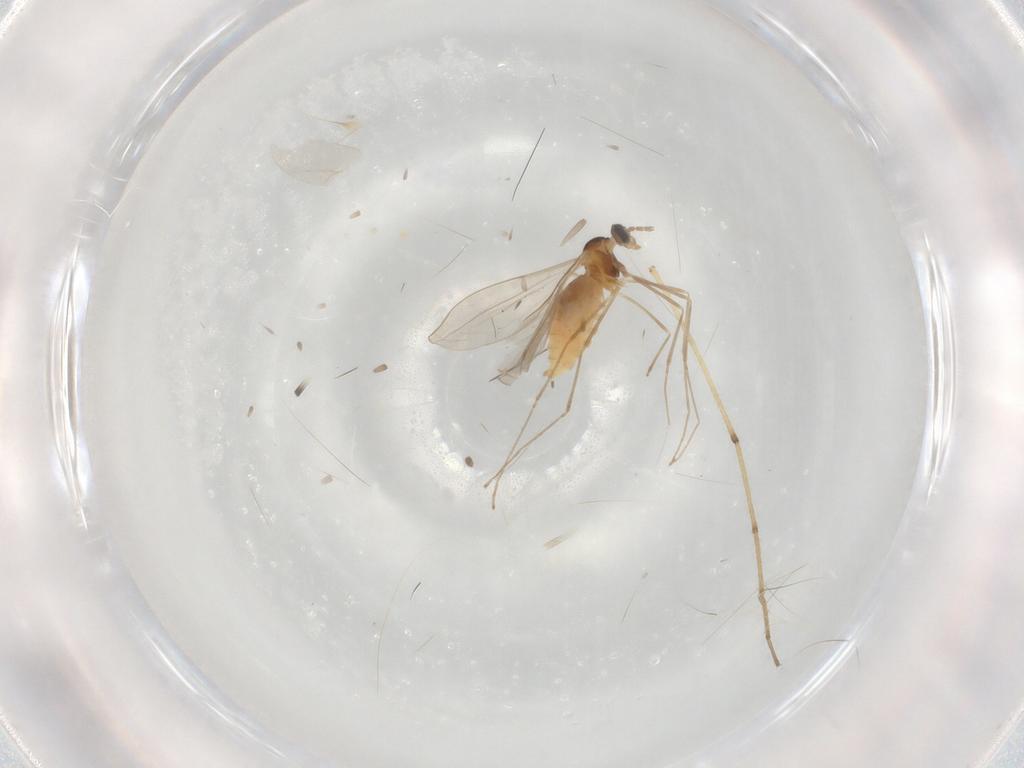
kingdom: Animalia
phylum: Arthropoda
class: Insecta
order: Diptera
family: Cecidomyiidae
